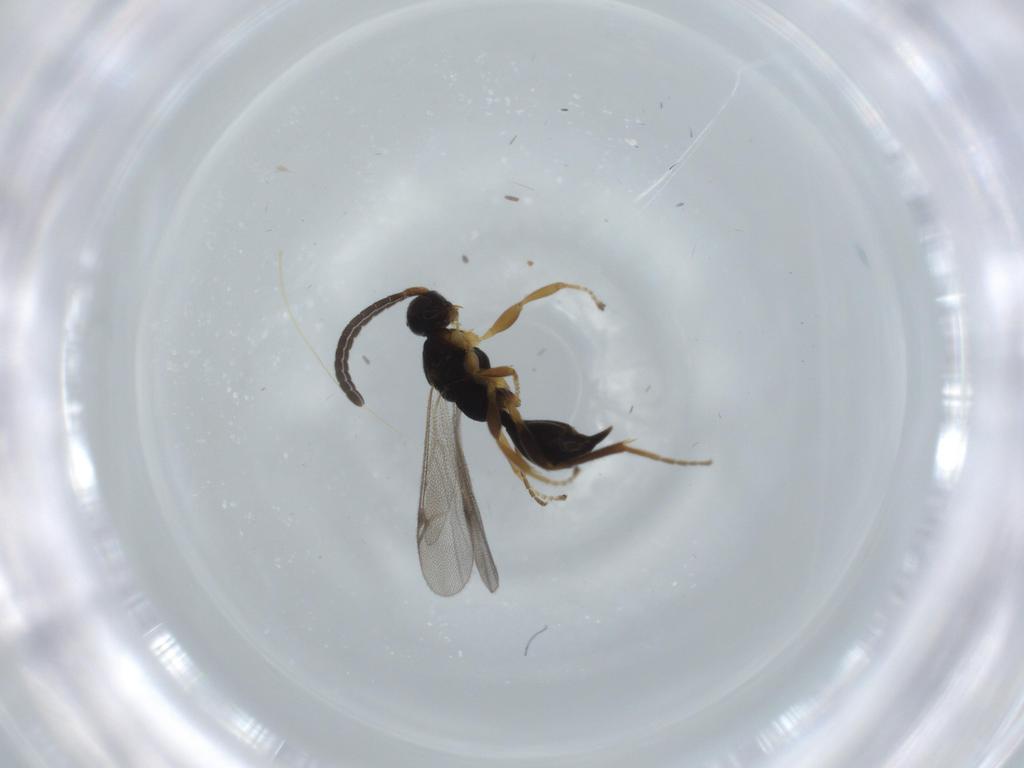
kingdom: Animalia
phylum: Arthropoda
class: Insecta
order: Hymenoptera
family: Proctotrupidae
